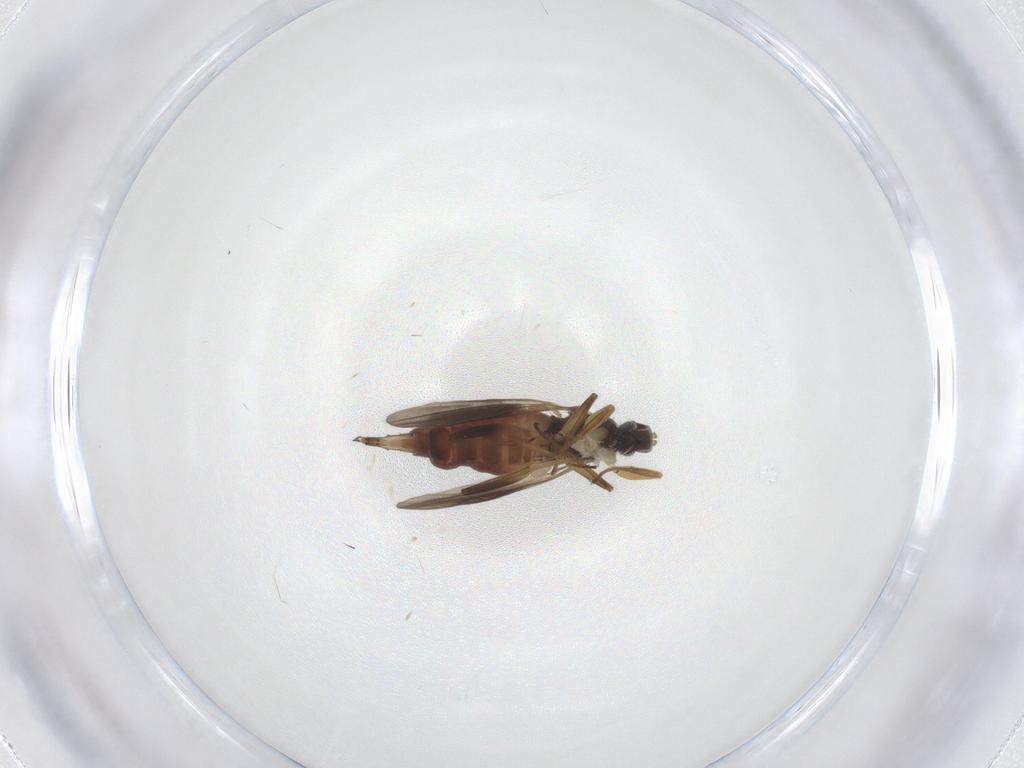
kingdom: Animalia
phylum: Arthropoda
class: Insecta
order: Diptera
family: Hybotidae
